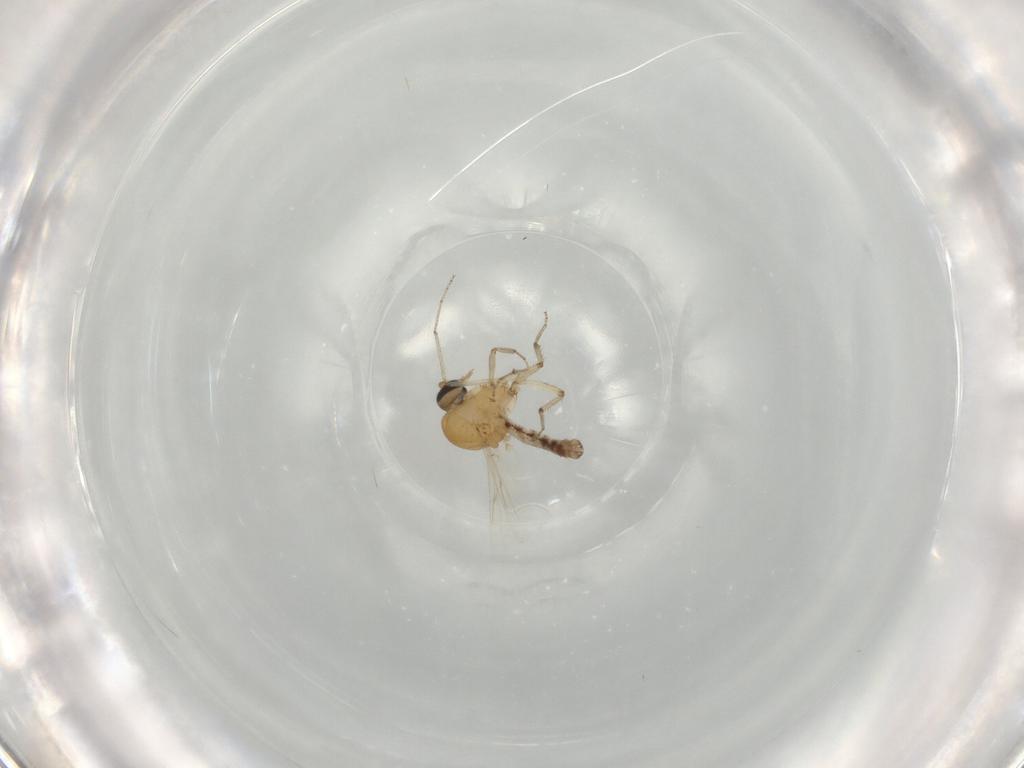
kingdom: Animalia
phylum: Arthropoda
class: Insecta
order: Diptera
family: Ceratopogonidae
